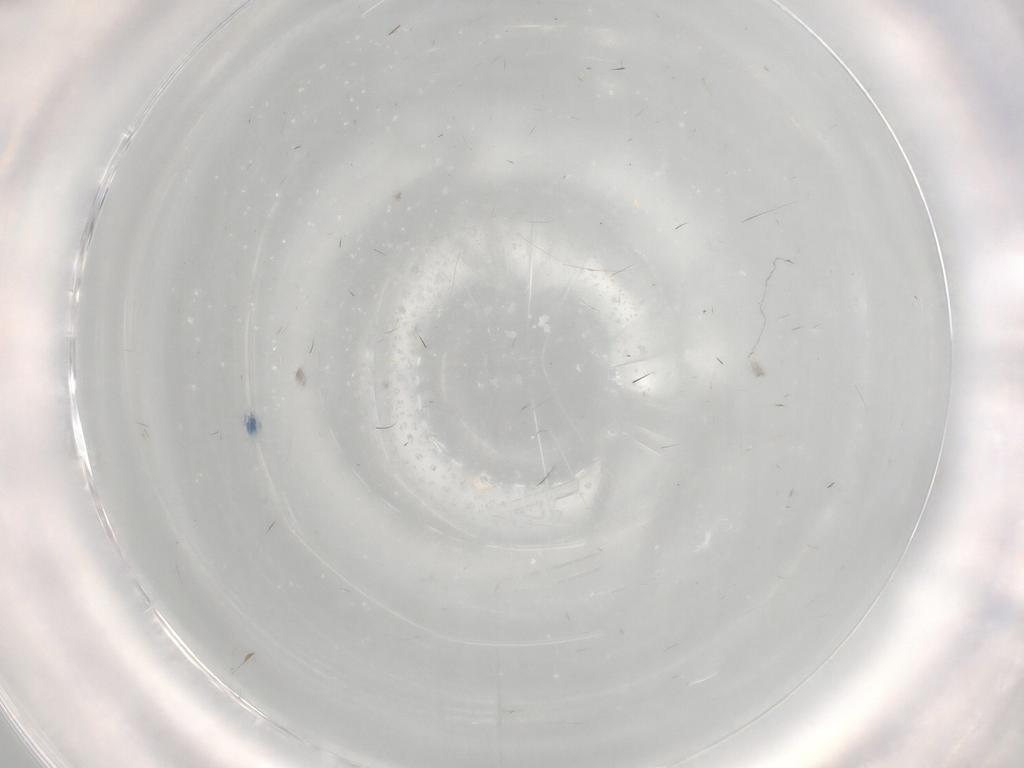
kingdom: Animalia
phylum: Arthropoda
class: Insecta
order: Diptera
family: Chironomidae
